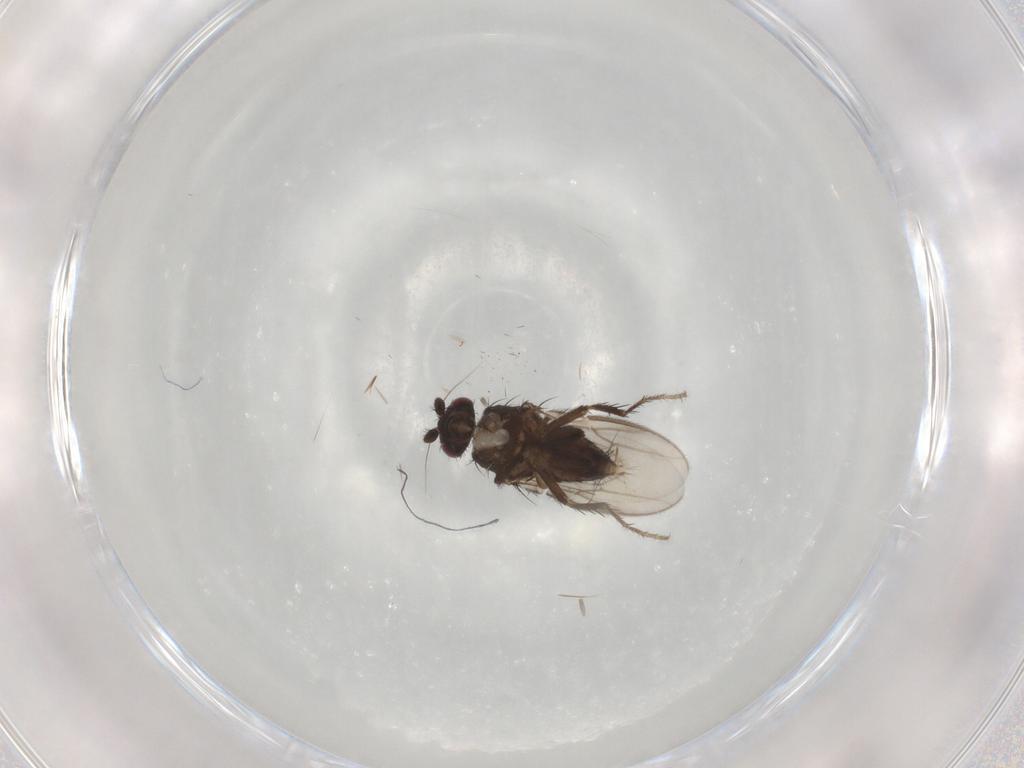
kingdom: Animalia
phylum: Arthropoda
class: Insecta
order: Diptera
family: Sphaeroceridae
